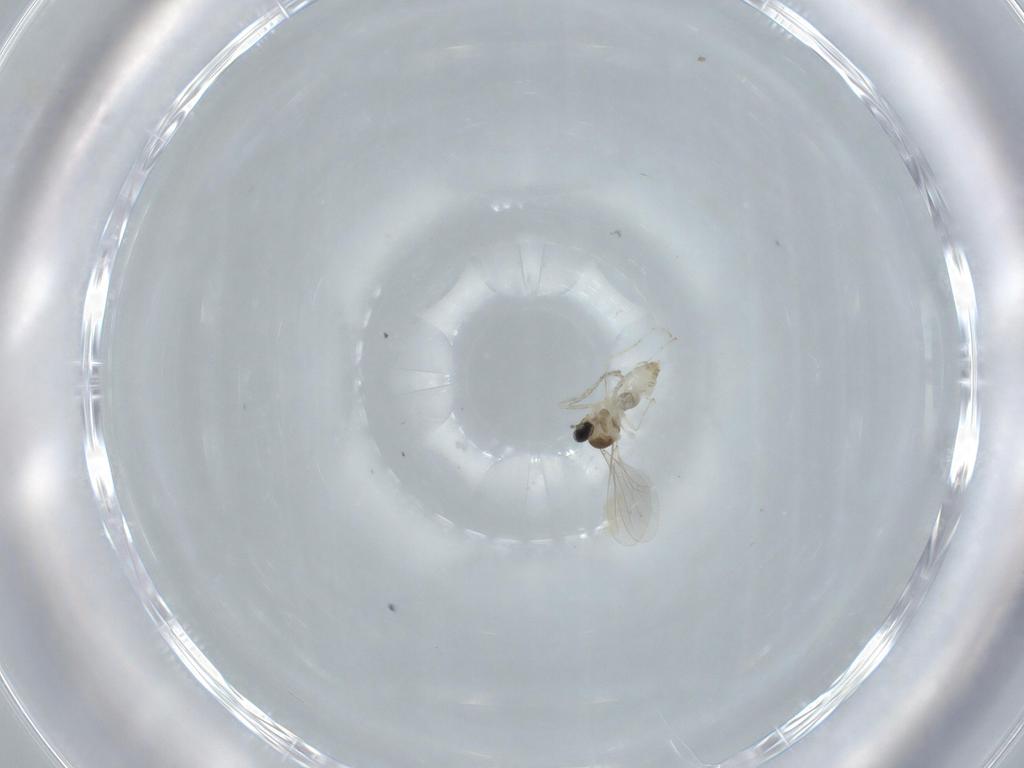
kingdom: Animalia
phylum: Arthropoda
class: Insecta
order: Diptera
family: Cecidomyiidae
